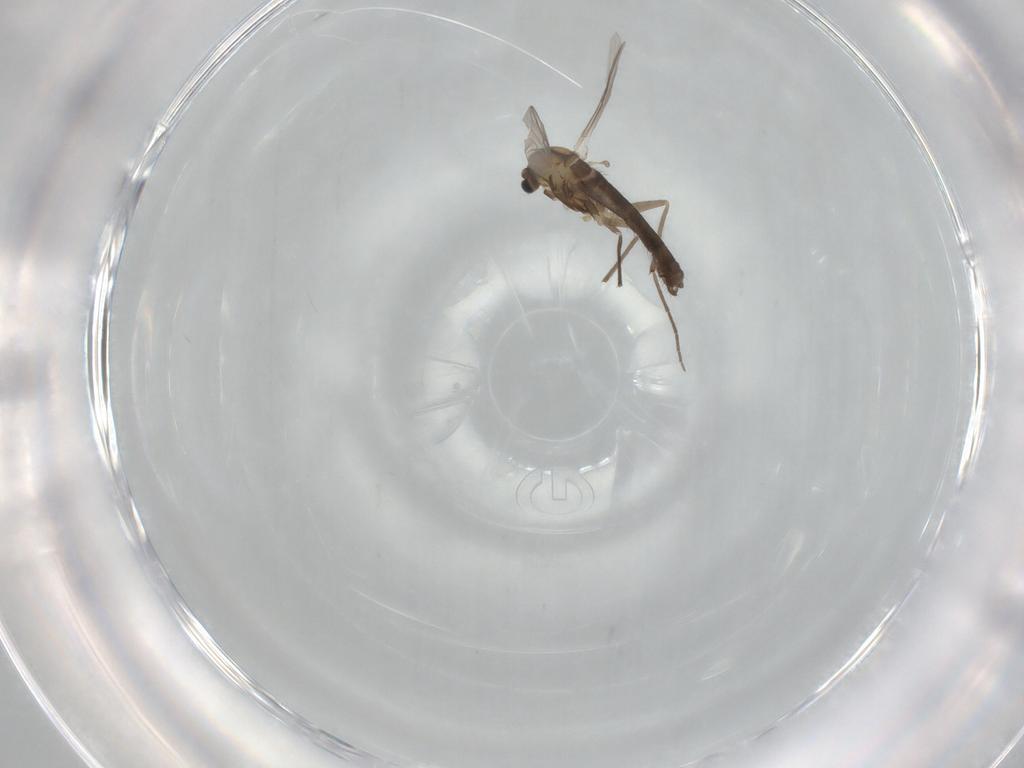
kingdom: Animalia
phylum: Arthropoda
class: Insecta
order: Diptera
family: Chironomidae
